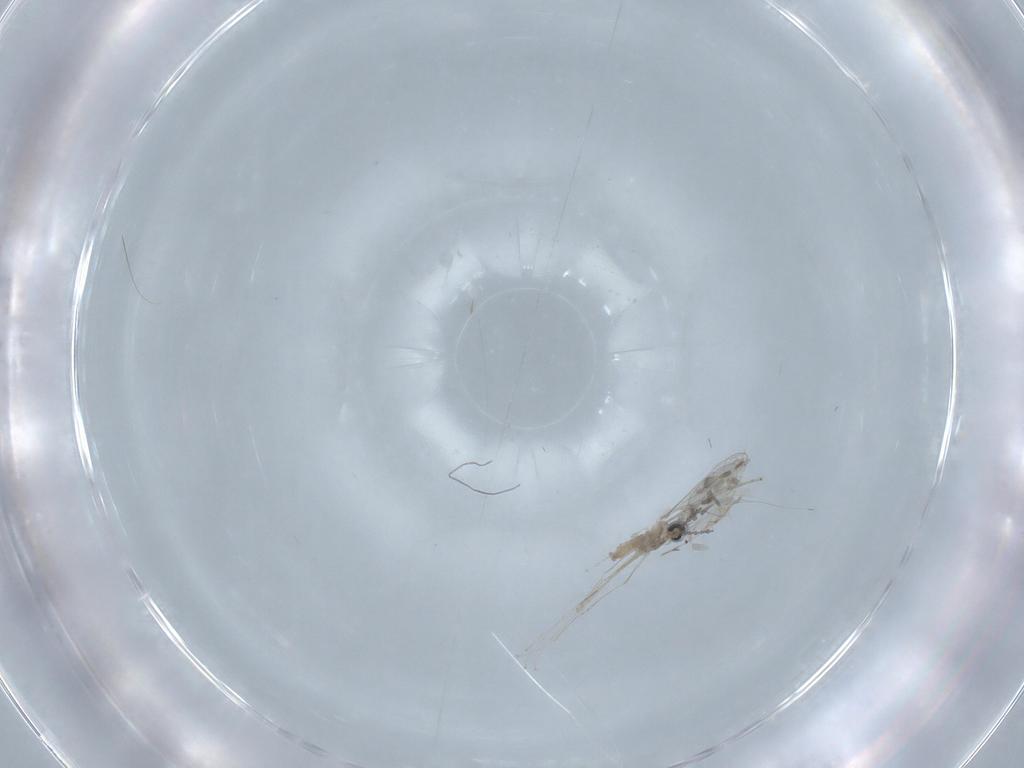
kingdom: Animalia
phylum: Arthropoda
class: Insecta
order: Diptera
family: Chironomidae
